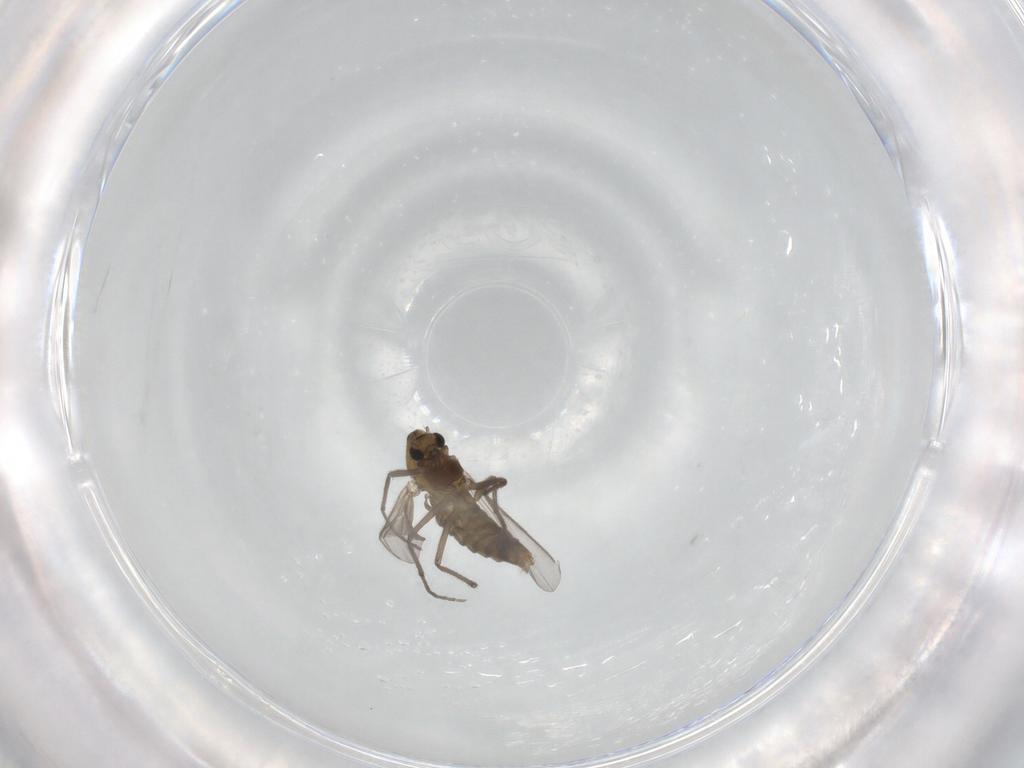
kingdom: Animalia
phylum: Arthropoda
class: Insecta
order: Diptera
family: Chironomidae
